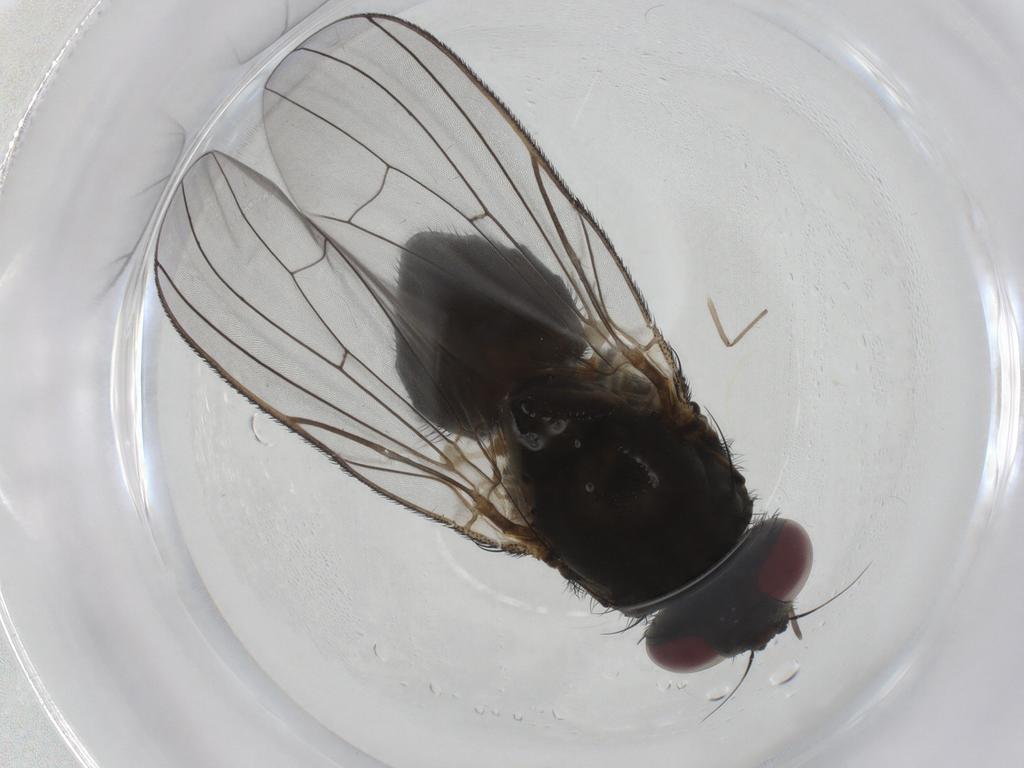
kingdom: Animalia
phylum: Arthropoda
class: Insecta
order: Diptera
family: Fannia
